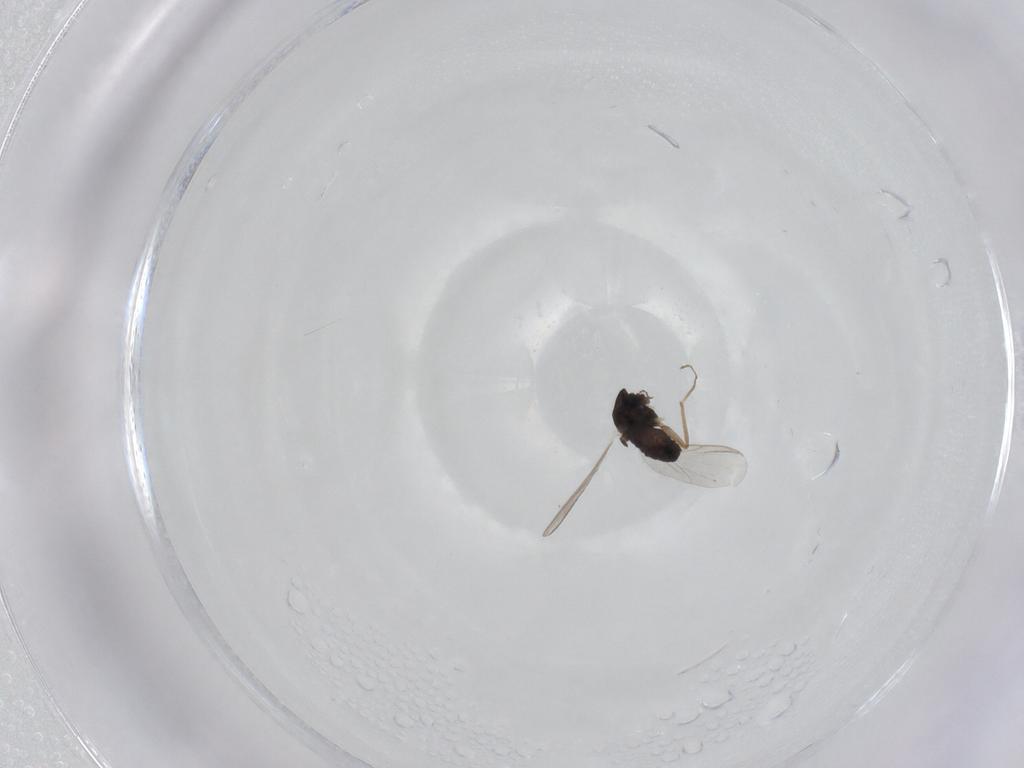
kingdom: Animalia
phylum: Arthropoda
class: Insecta
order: Diptera
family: Chironomidae
